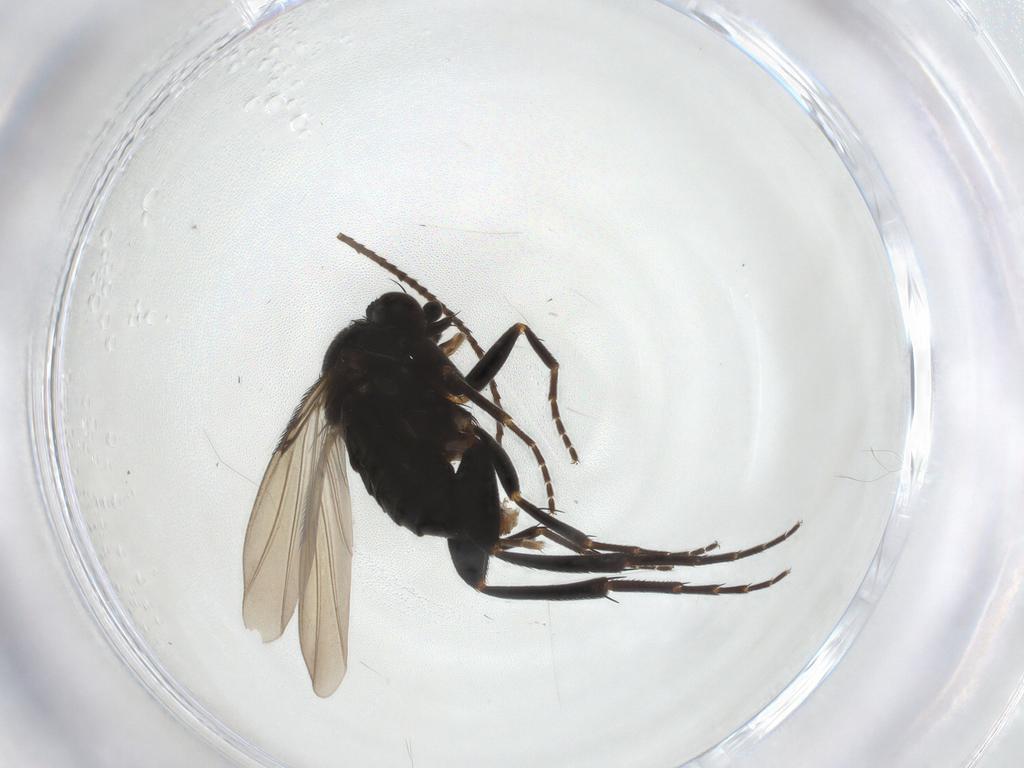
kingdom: Animalia
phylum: Arthropoda
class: Insecta
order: Diptera
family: Phoridae
